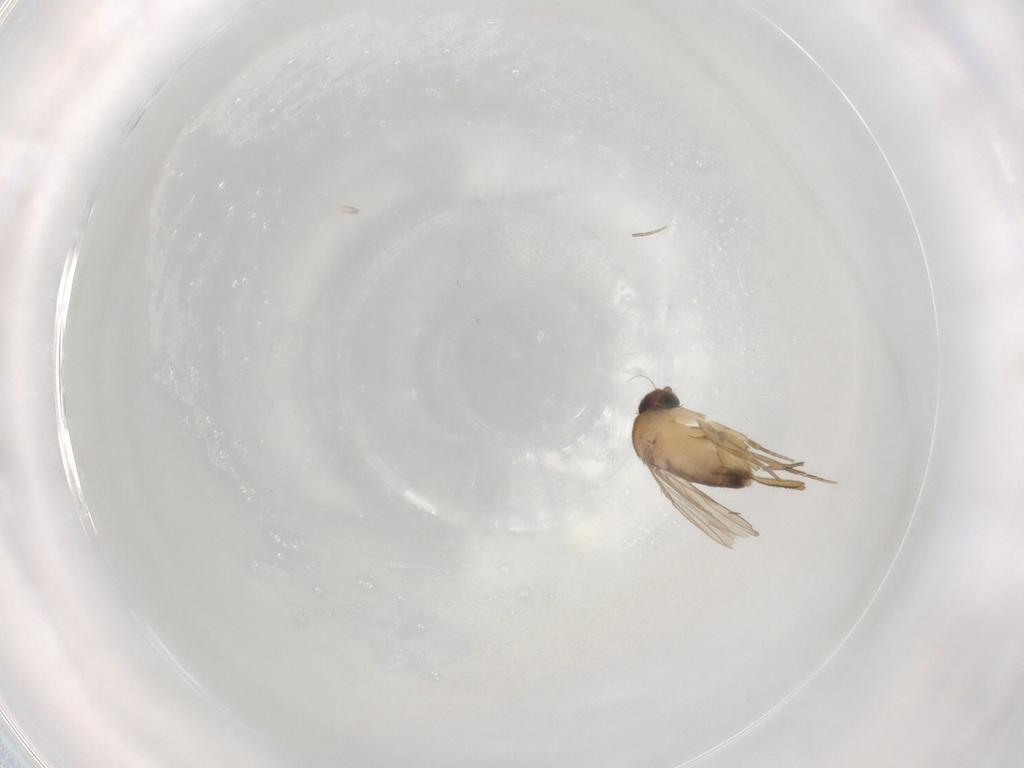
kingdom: Animalia
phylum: Arthropoda
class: Insecta
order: Diptera
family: Phoridae
